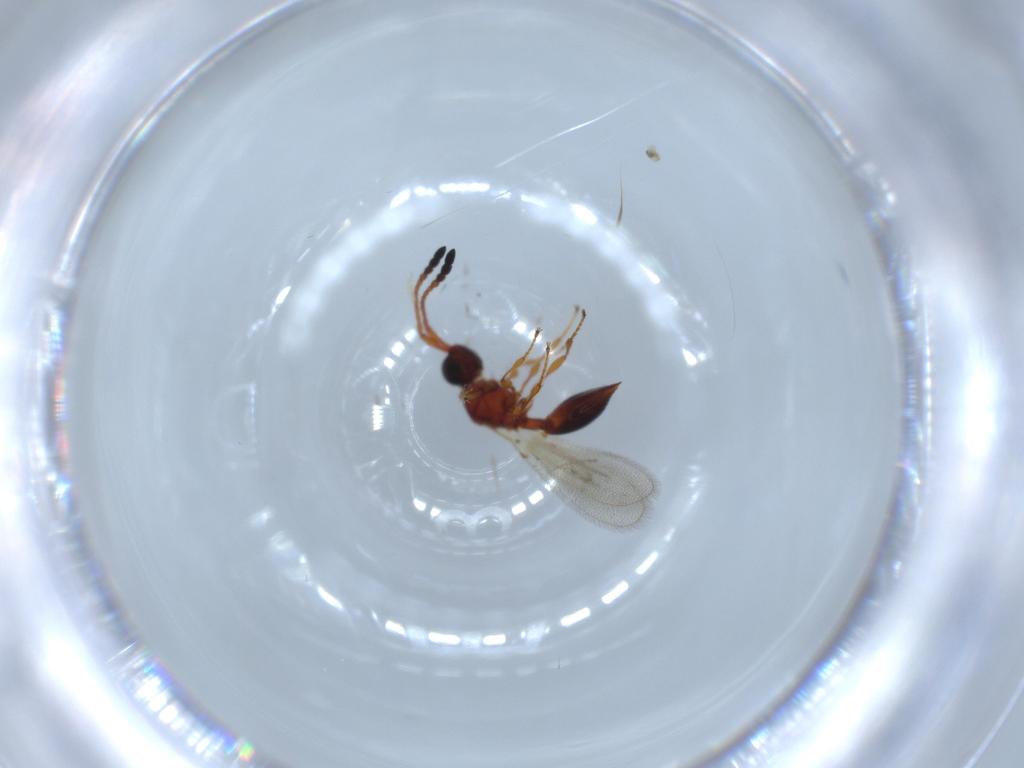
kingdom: Animalia
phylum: Arthropoda
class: Insecta
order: Hymenoptera
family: Diapriidae
